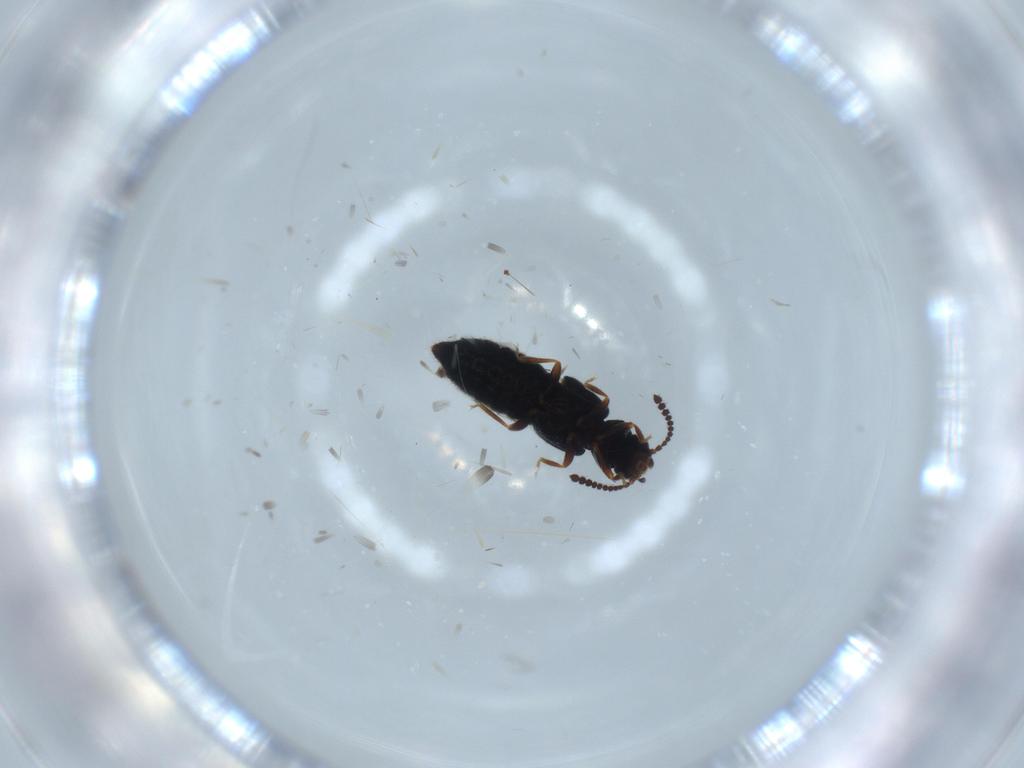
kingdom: Animalia
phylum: Arthropoda
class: Insecta
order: Coleoptera
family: Staphylinidae
